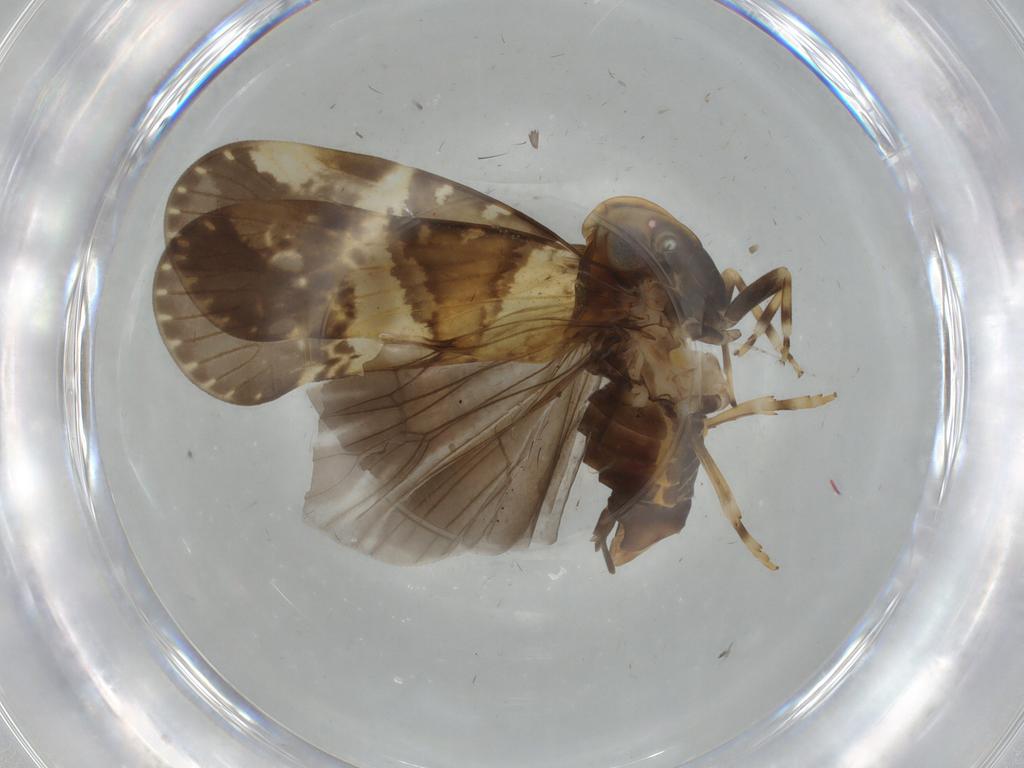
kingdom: Animalia
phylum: Arthropoda
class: Insecta
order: Hemiptera
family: Cixiidae
